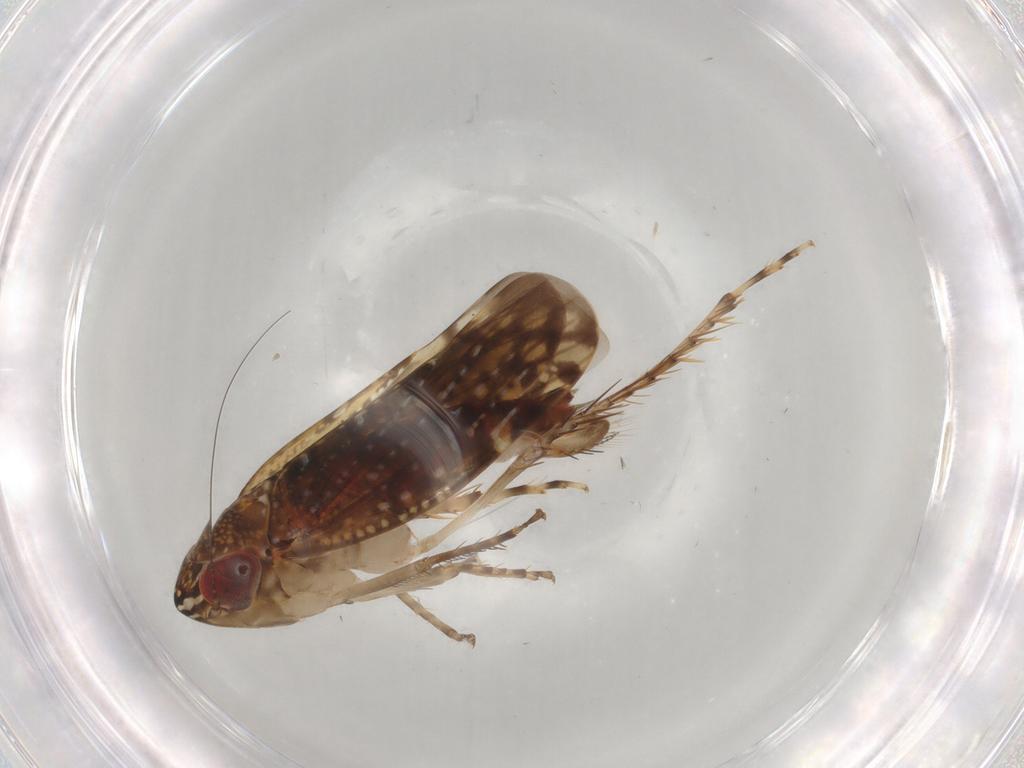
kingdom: Animalia
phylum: Arthropoda
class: Insecta
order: Hemiptera
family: Cicadellidae
